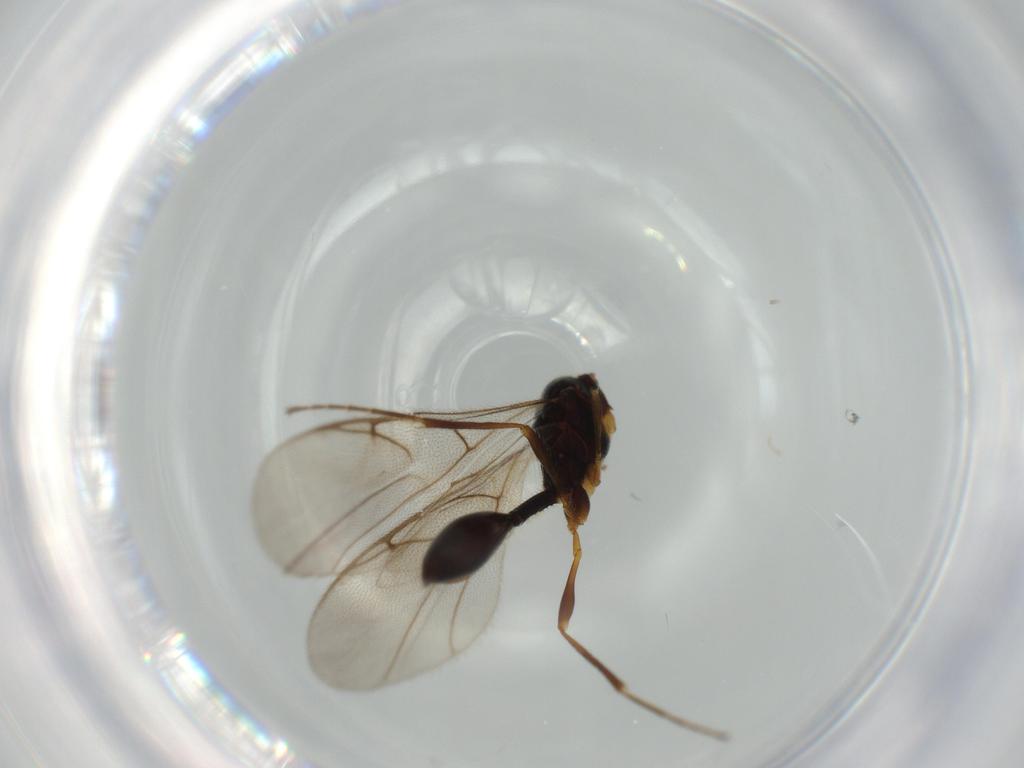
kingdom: Animalia
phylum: Arthropoda
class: Insecta
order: Hymenoptera
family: Diapriidae
